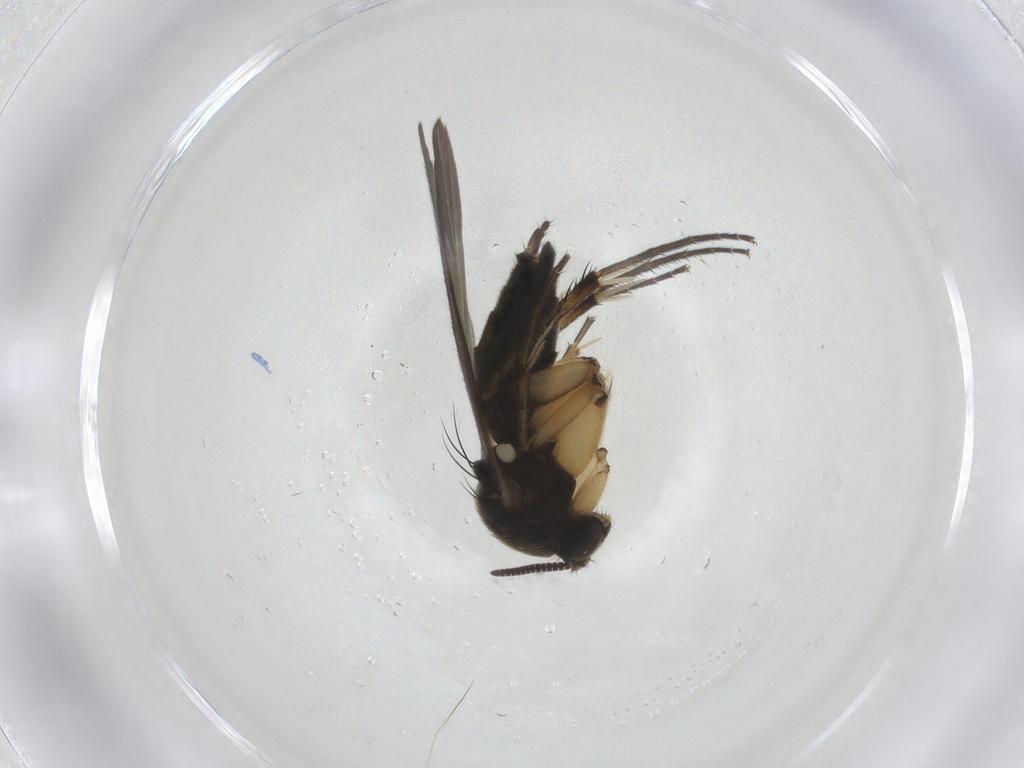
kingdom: Animalia
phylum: Arthropoda
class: Insecta
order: Diptera
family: Mycetophilidae
